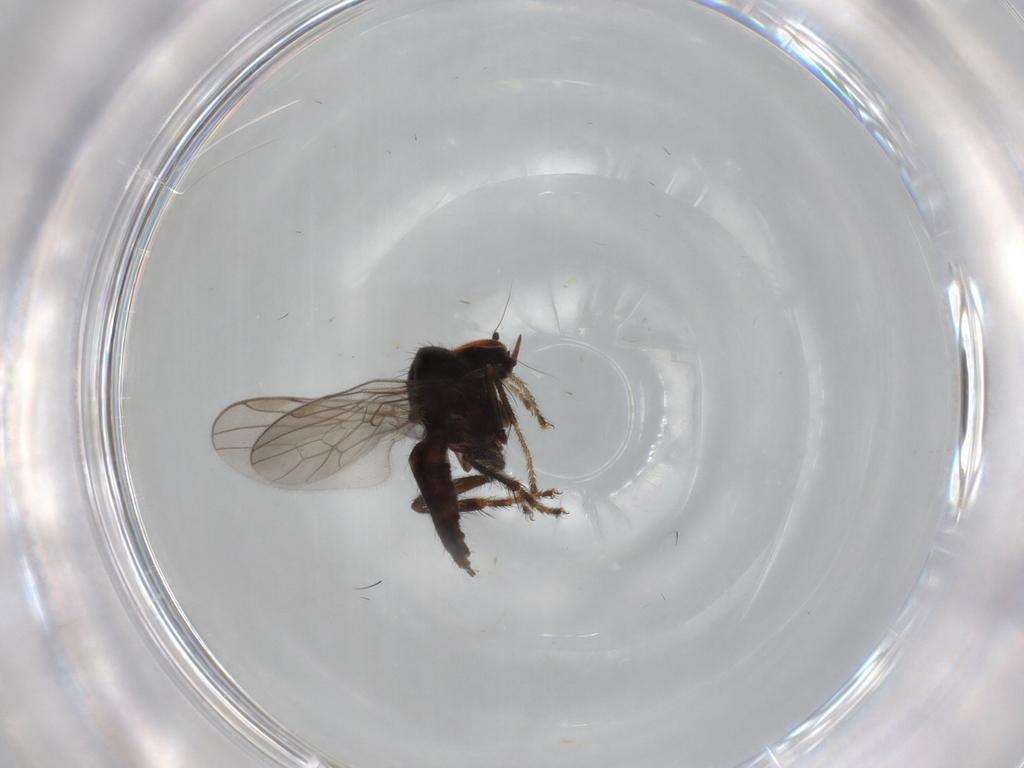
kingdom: Animalia
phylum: Arthropoda
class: Insecta
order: Diptera
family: Hybotidae
